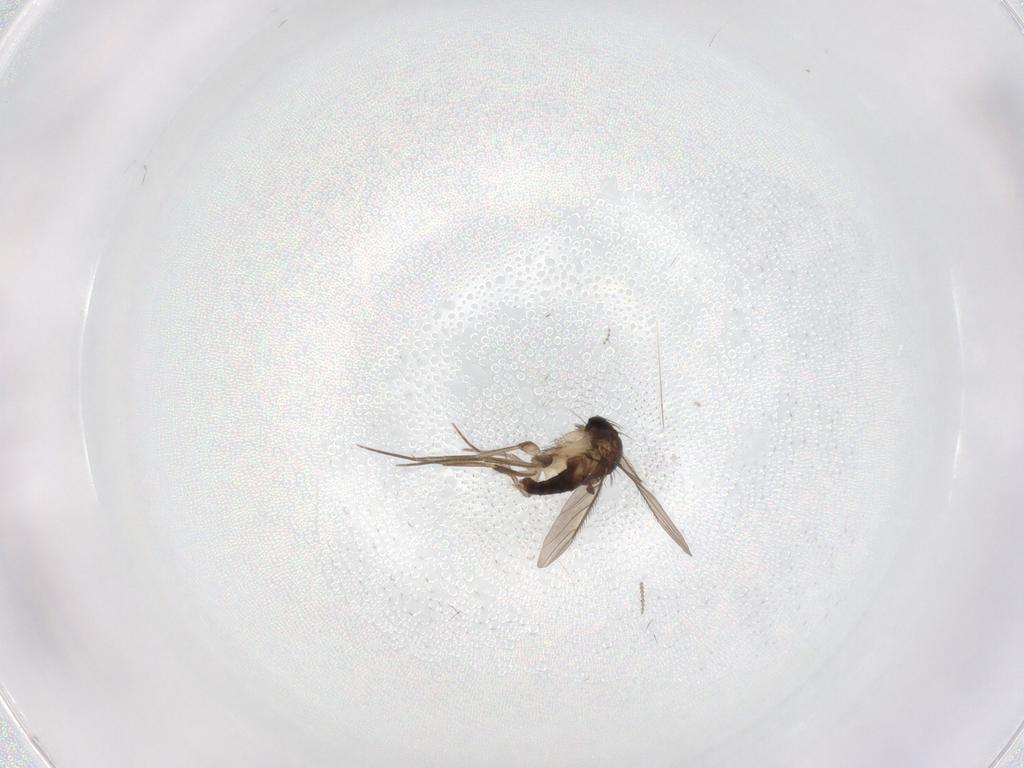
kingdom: Animalia
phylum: Arthropoda
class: Insecta
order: Diptera
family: Phoridae
